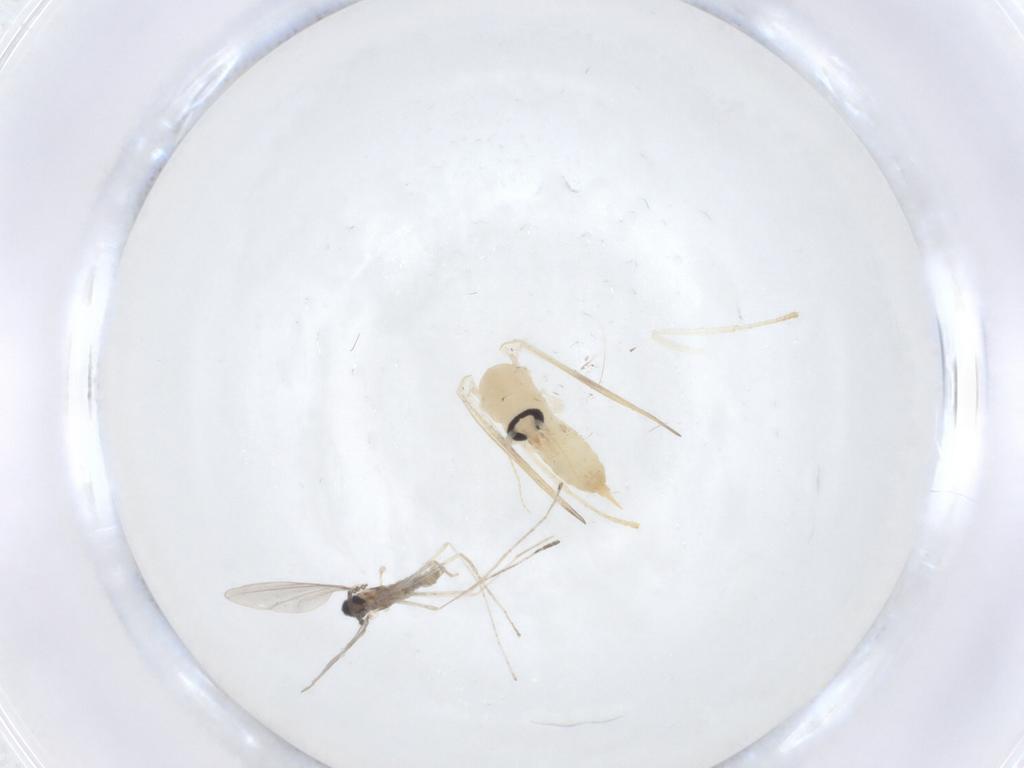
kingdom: Animalia
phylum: Arthropoda
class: Insecta
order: Diptera
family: Psychodidae
